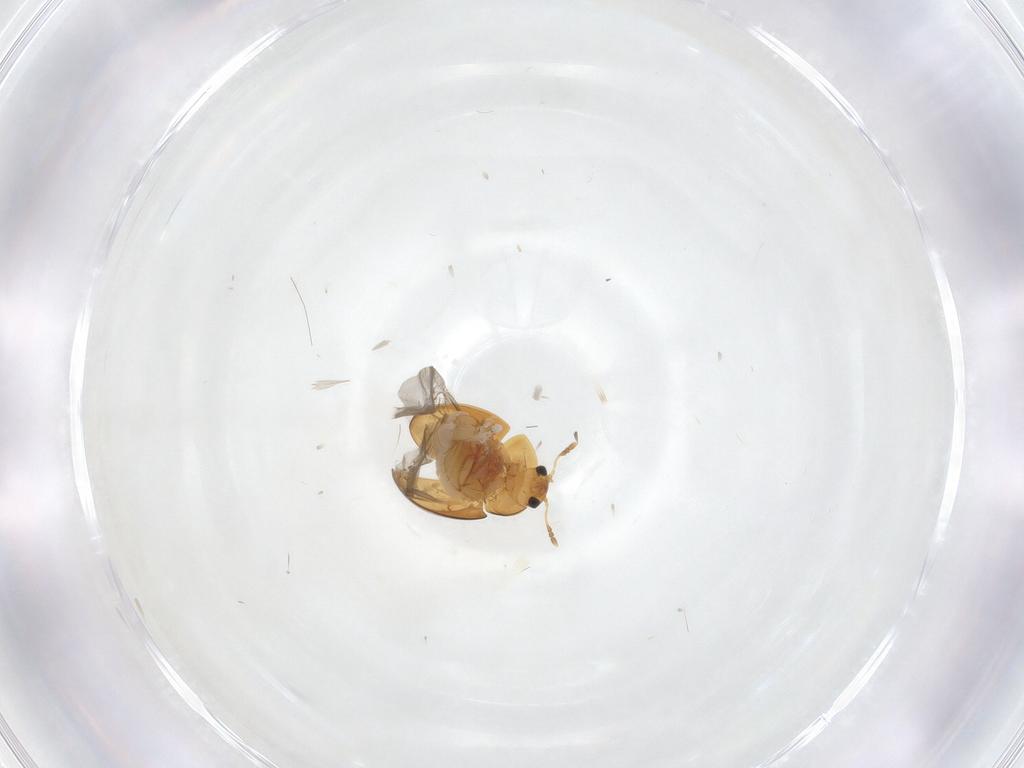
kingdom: Animalia
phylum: Arthropoda
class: Insecta
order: Coleoptera
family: Phalacridae
